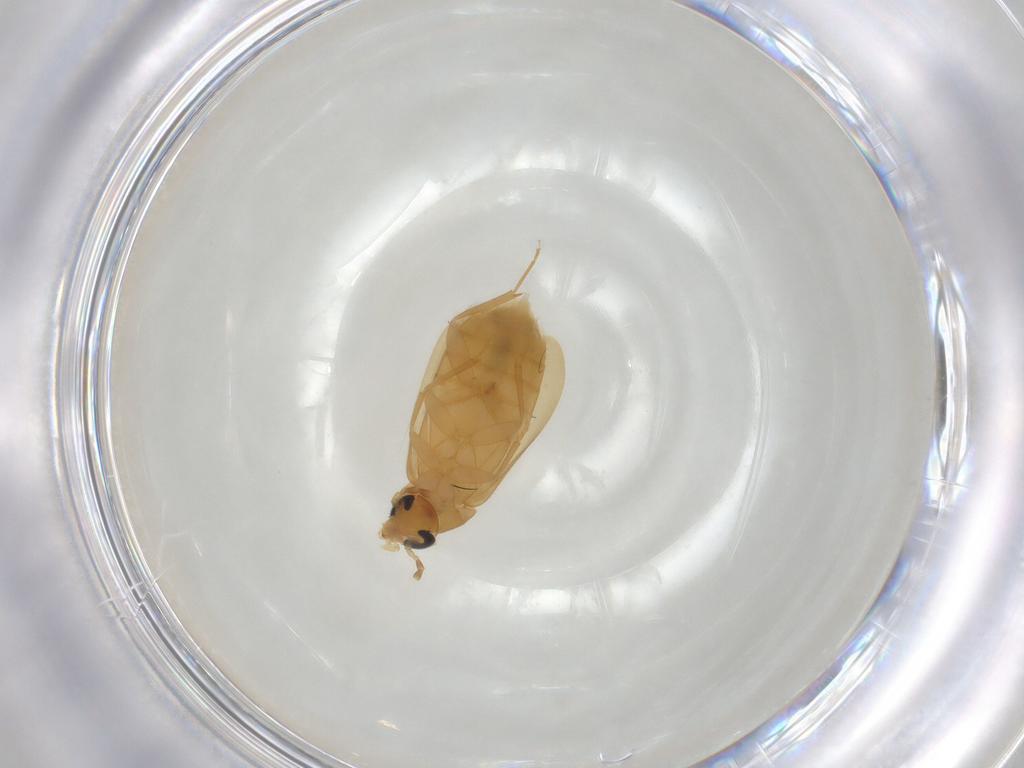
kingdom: Animalia
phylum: Arthropoda
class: Insecta
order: Coleoptera
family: Scraptiidae
